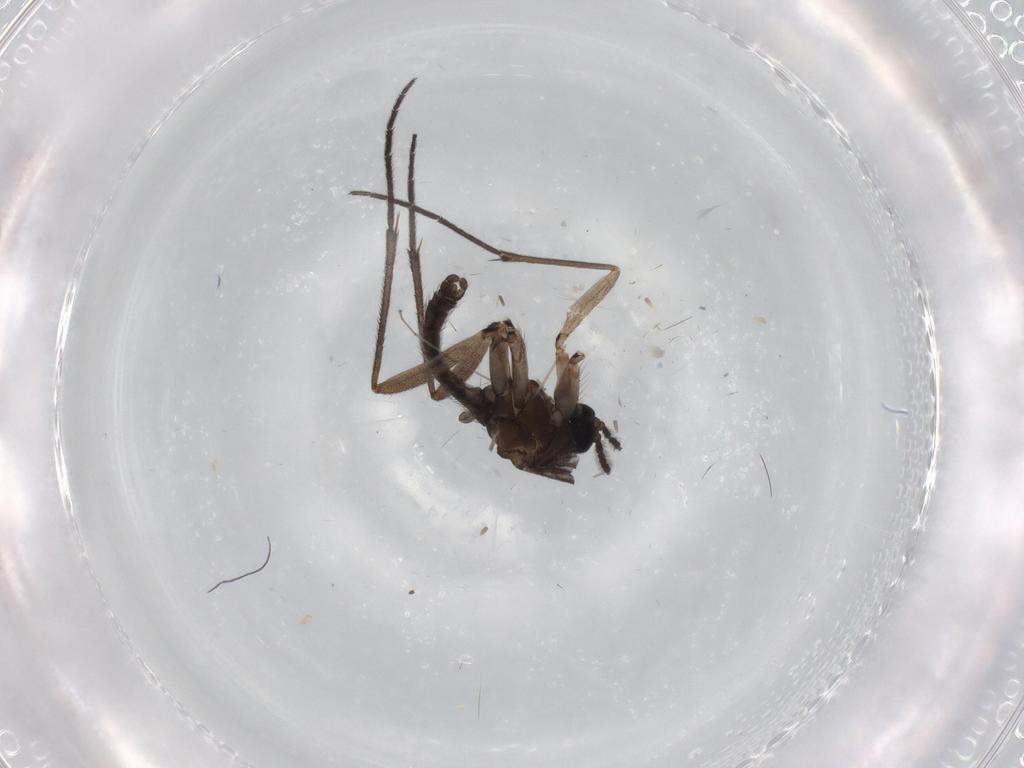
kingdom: Animalia
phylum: Arthropoda
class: Insecta
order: Diptera
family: Sciaridae
